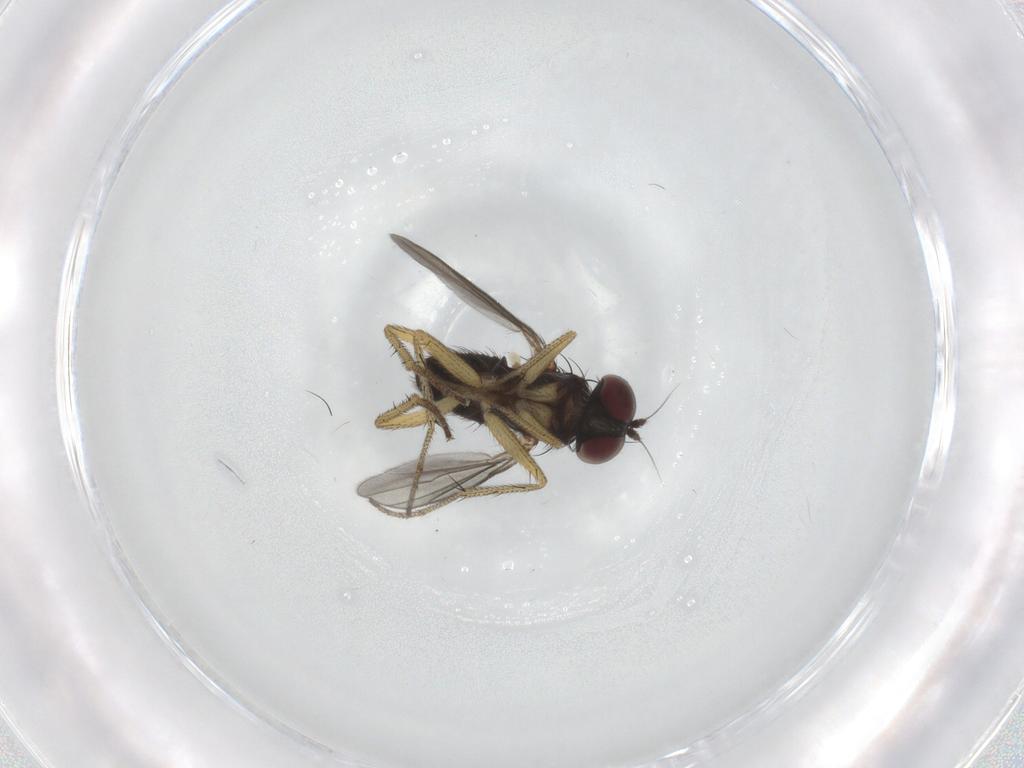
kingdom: Animalia
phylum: Arthropoda
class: Insecta
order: Diptera
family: Dolichopodidae
